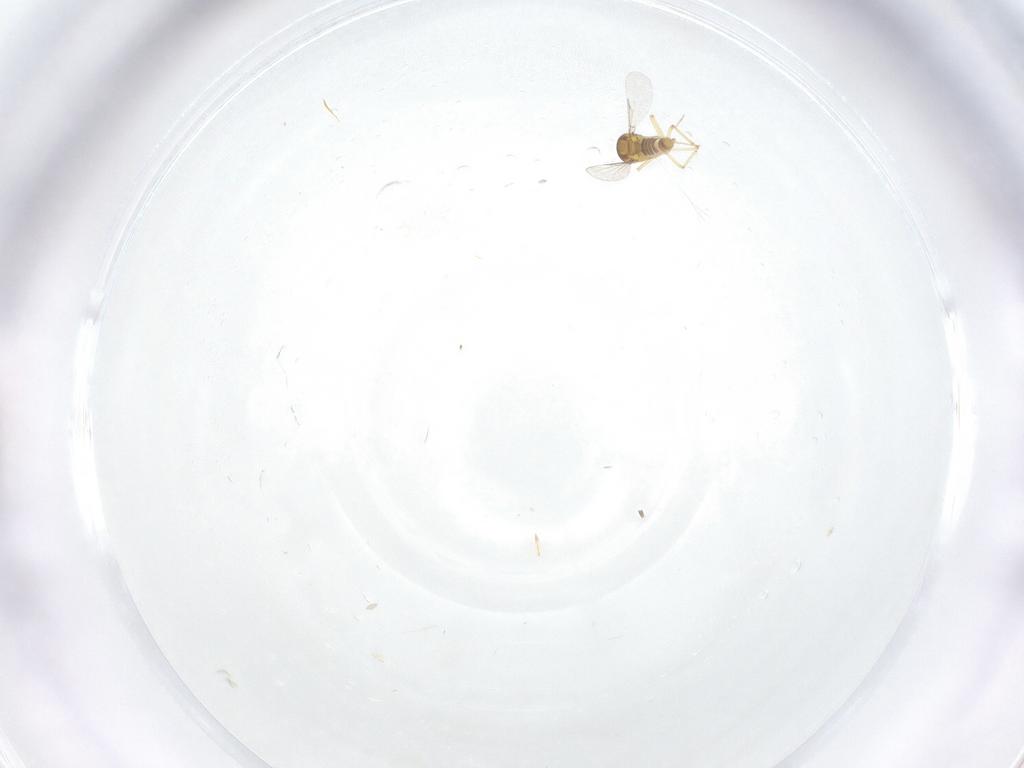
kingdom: Animalia
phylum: Arthropoda
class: Insecta
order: Diptera
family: Ceratopogonidae
